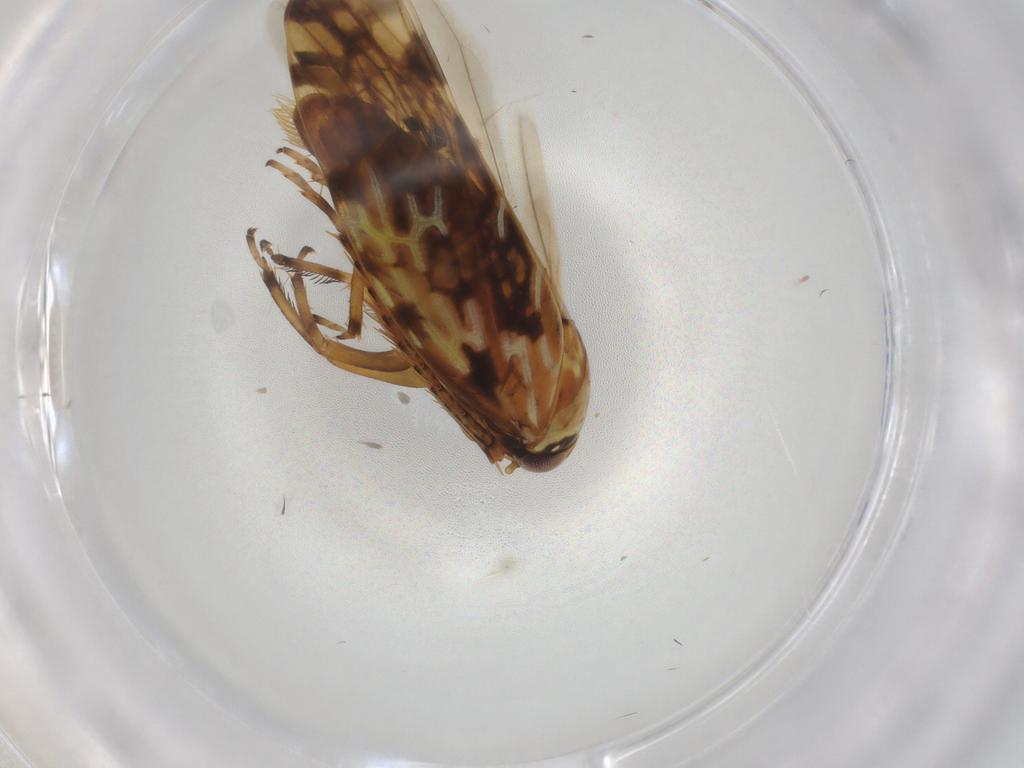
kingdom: Animalia
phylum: Arthropoda
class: Insecta
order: Hemiptera
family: Cicadellidae
